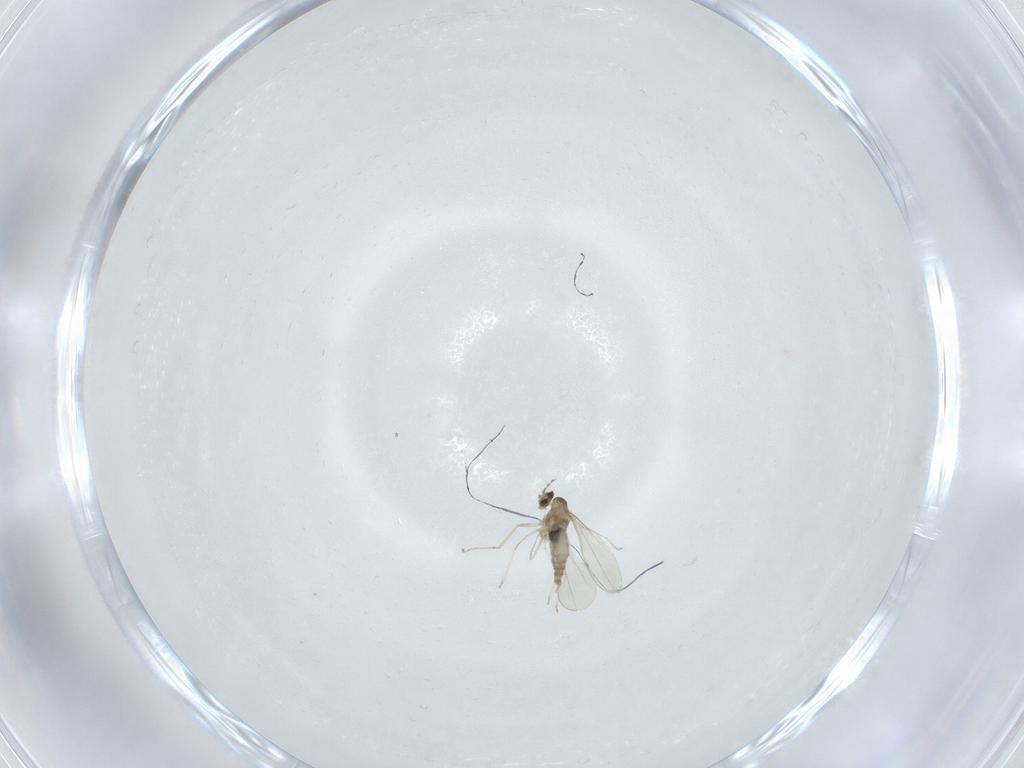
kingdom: Animalia
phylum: Arthropoda
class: Insecta
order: Diptera
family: Cecidomyiidae
